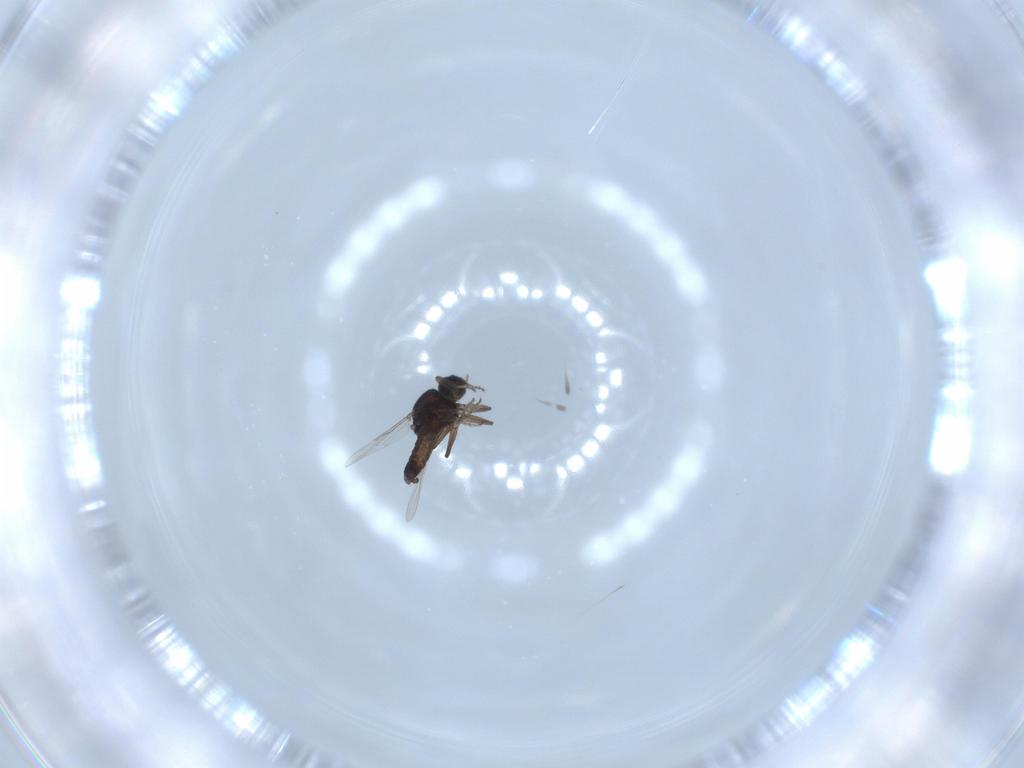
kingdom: Animalia
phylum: Arthropoda
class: Insecta
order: Diptera
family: Ceratopogonidae
